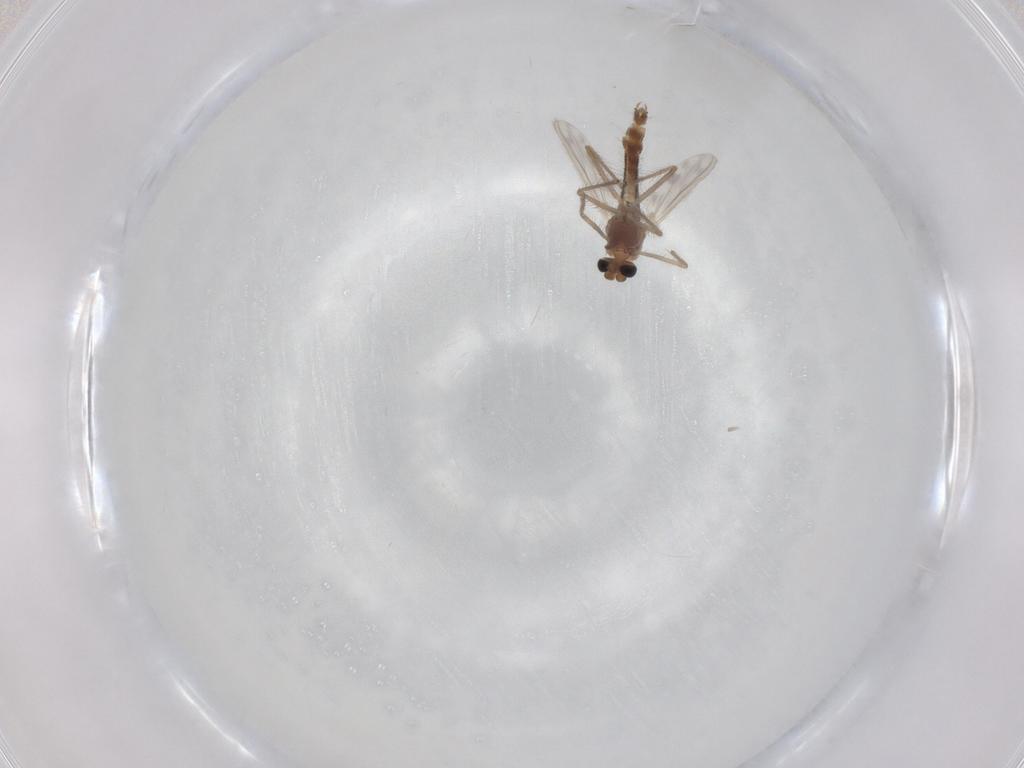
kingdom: Animalia
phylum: Arthropoda
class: Insecta
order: Diptera
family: Chironomidae
